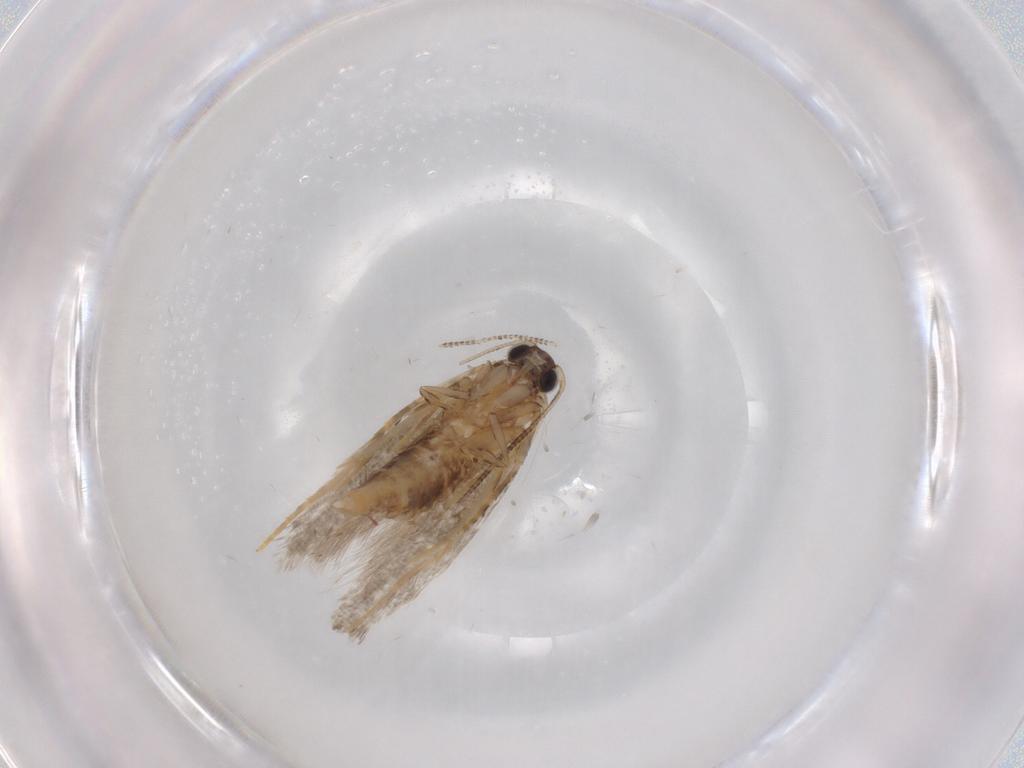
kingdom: Animalia
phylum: Arthropoda
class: Insecta
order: Lepidoptera
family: Tineidae
